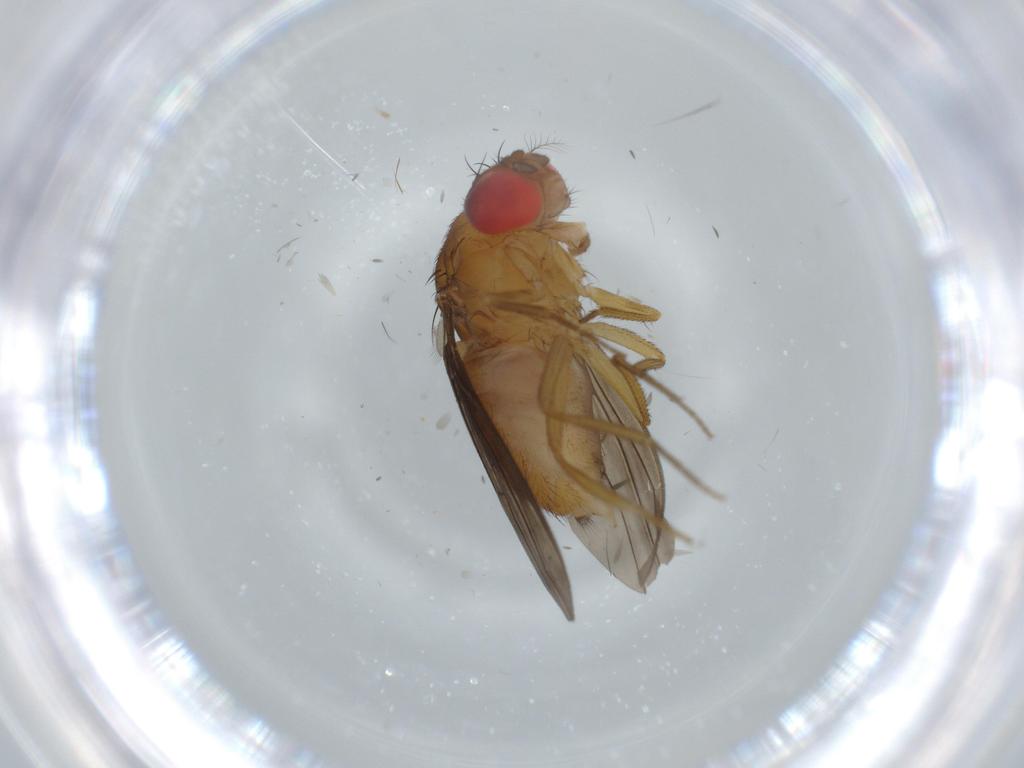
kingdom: Animalia
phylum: Arthropoda
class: Insecta
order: Diptera
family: Drosophilidae
